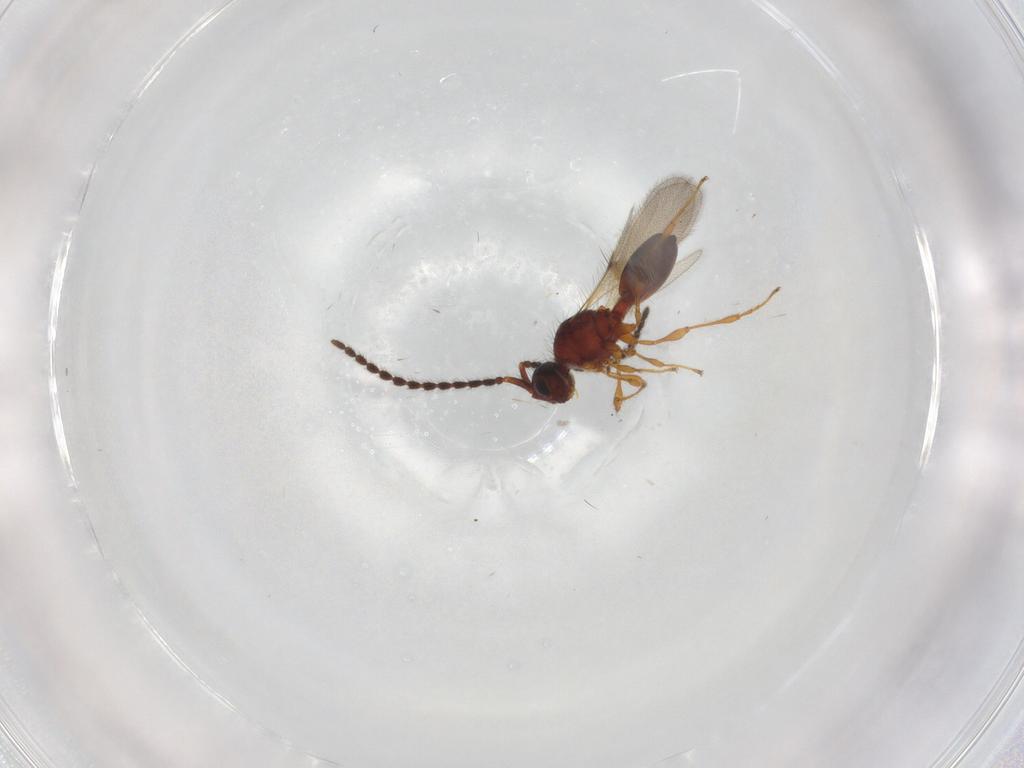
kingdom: Animalia
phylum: Arthropoda
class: Insecta
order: Hymenoptera
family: Diapriidae
